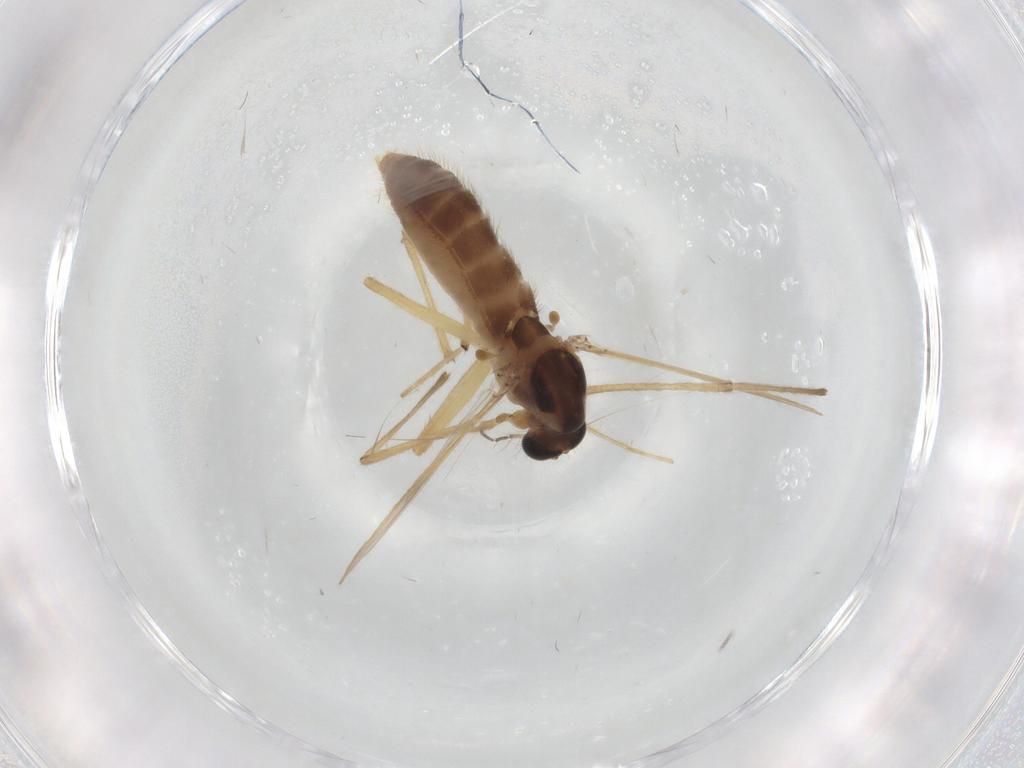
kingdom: Animalia
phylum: Arthropoda
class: Insecta
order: Diptera
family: Chironomidae
